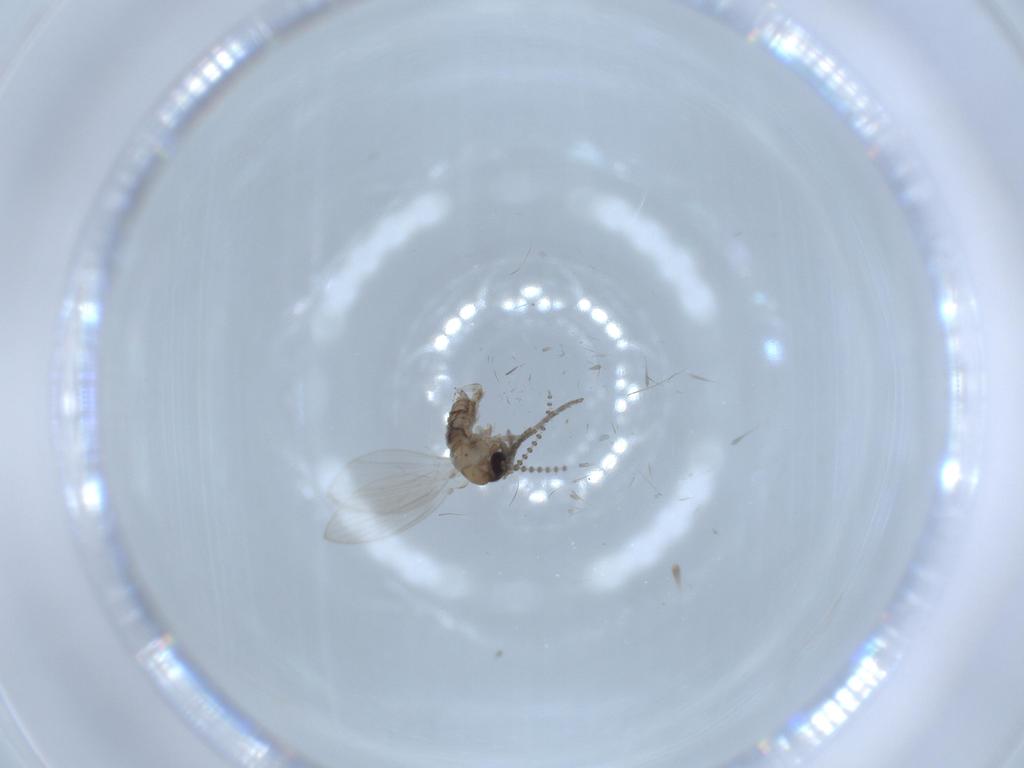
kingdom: Animalia
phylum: Arthropoda
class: Insecta
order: Diptera
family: Psychodidae
